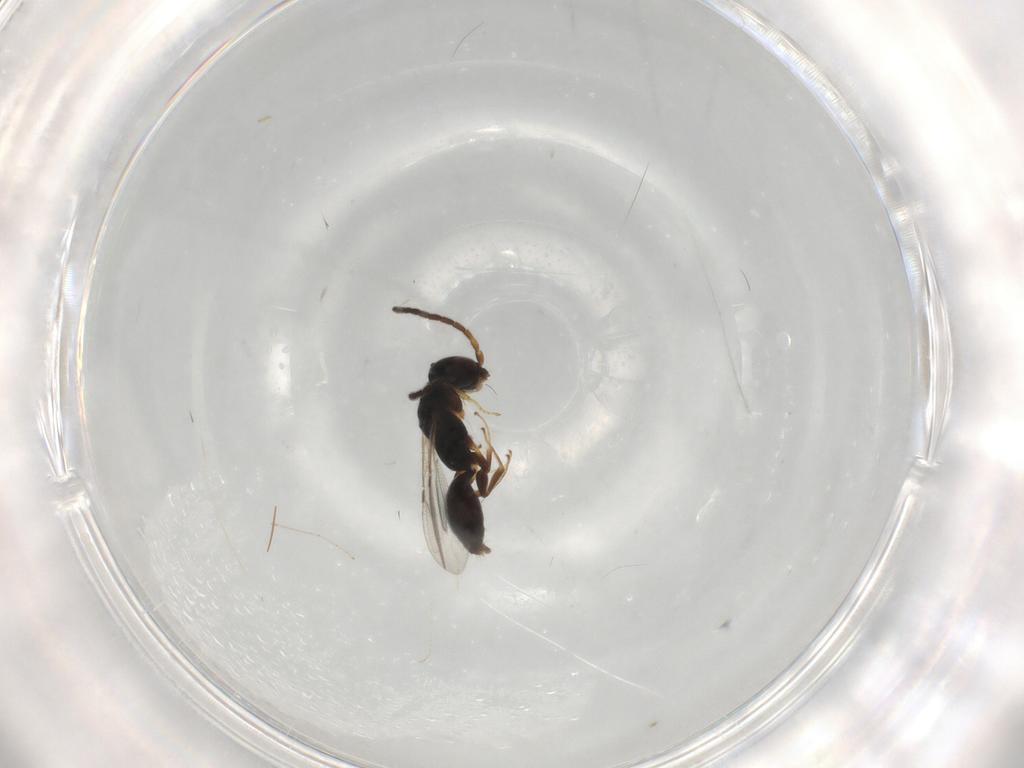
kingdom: Animalia
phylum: Arthropoda
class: Insecta
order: Hymenoptera
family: Bethylidae
